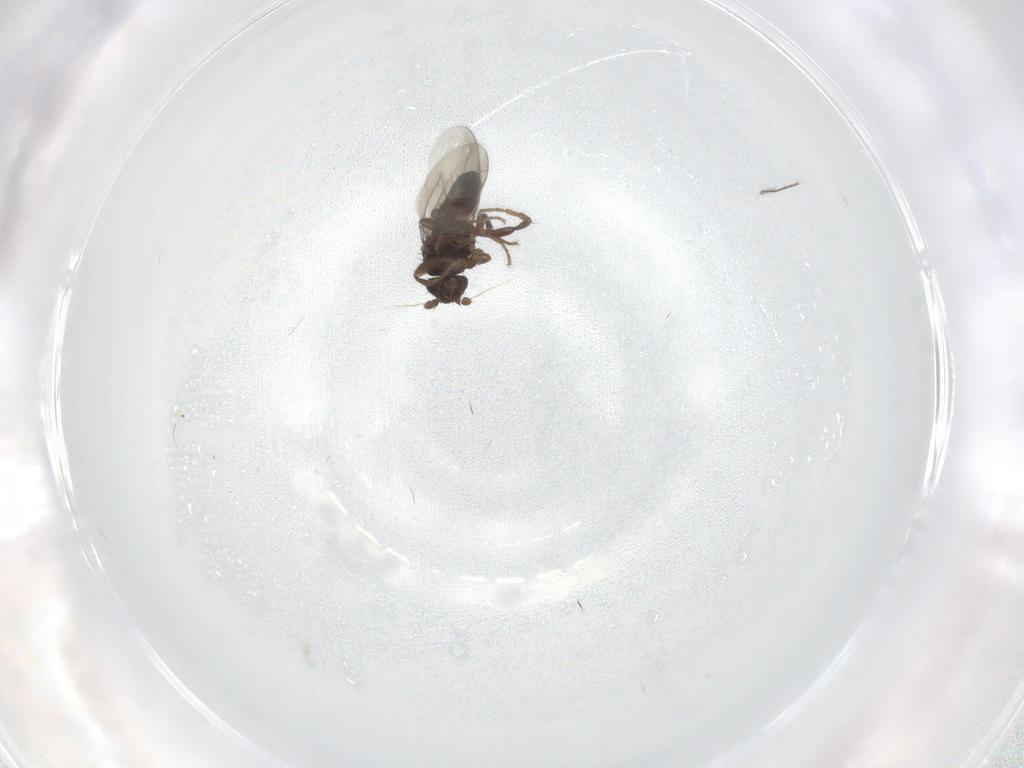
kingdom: Animalia
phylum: Arthropoda
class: Insecta
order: Diptera
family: Chironomidae
